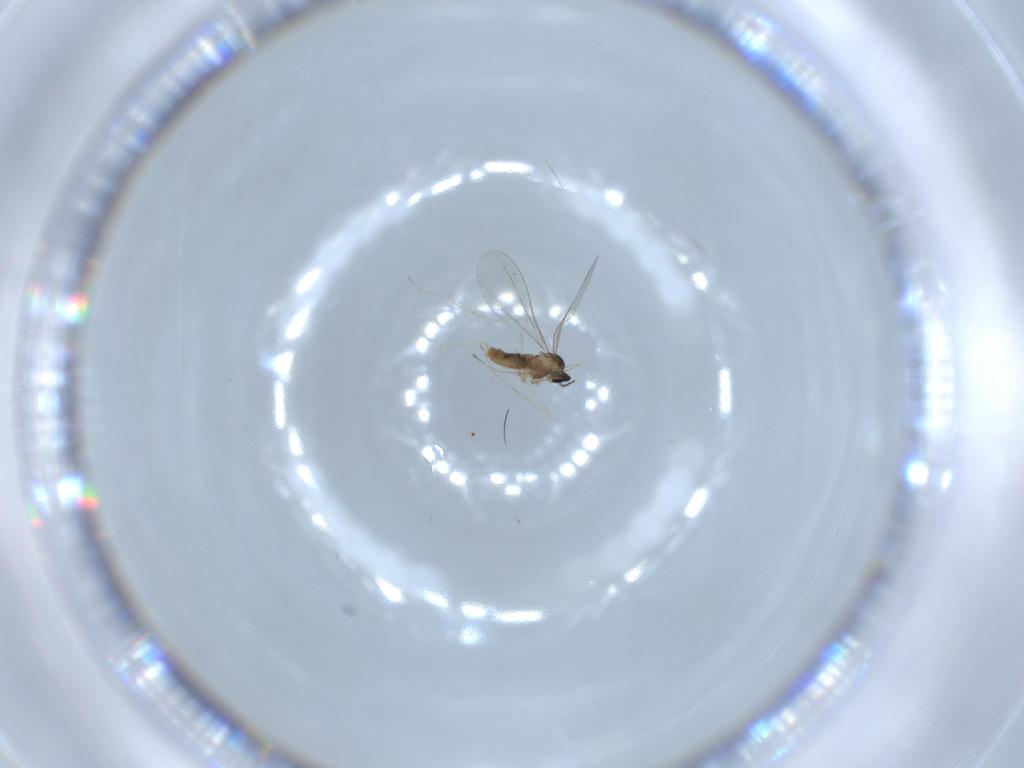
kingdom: Animalia
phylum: Arthropoda
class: Insecta
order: Diptera
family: Cecidomyiidae
